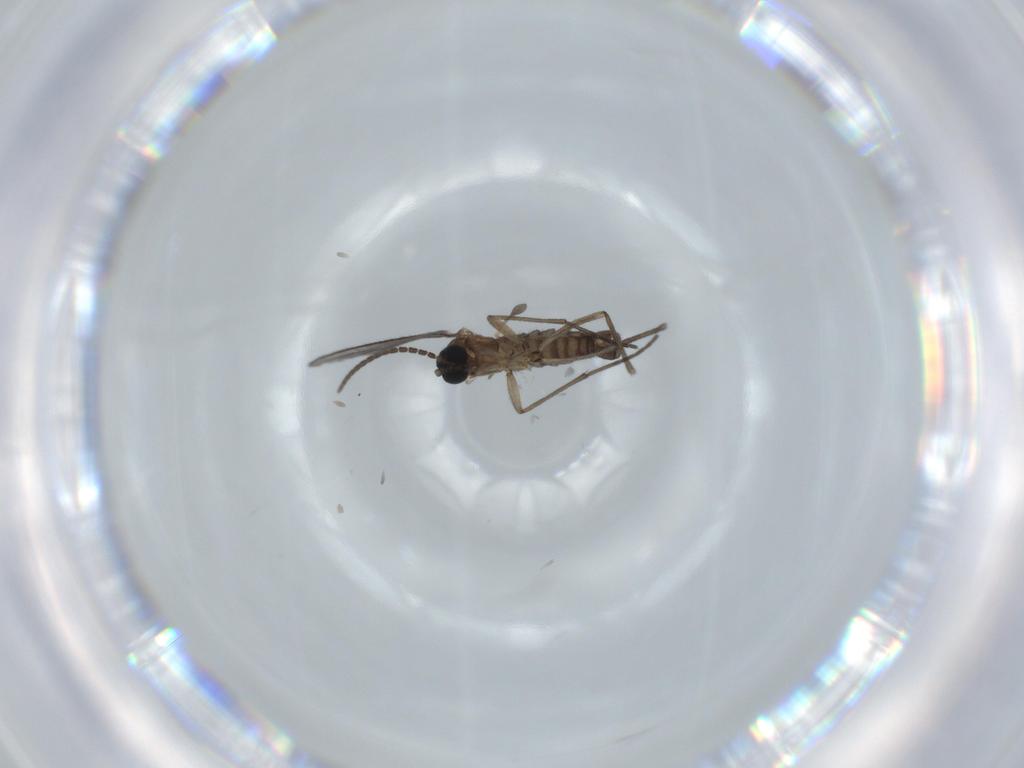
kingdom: Animalia
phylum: Arthropoda
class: Insecta
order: Diptera
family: Sciaridae
